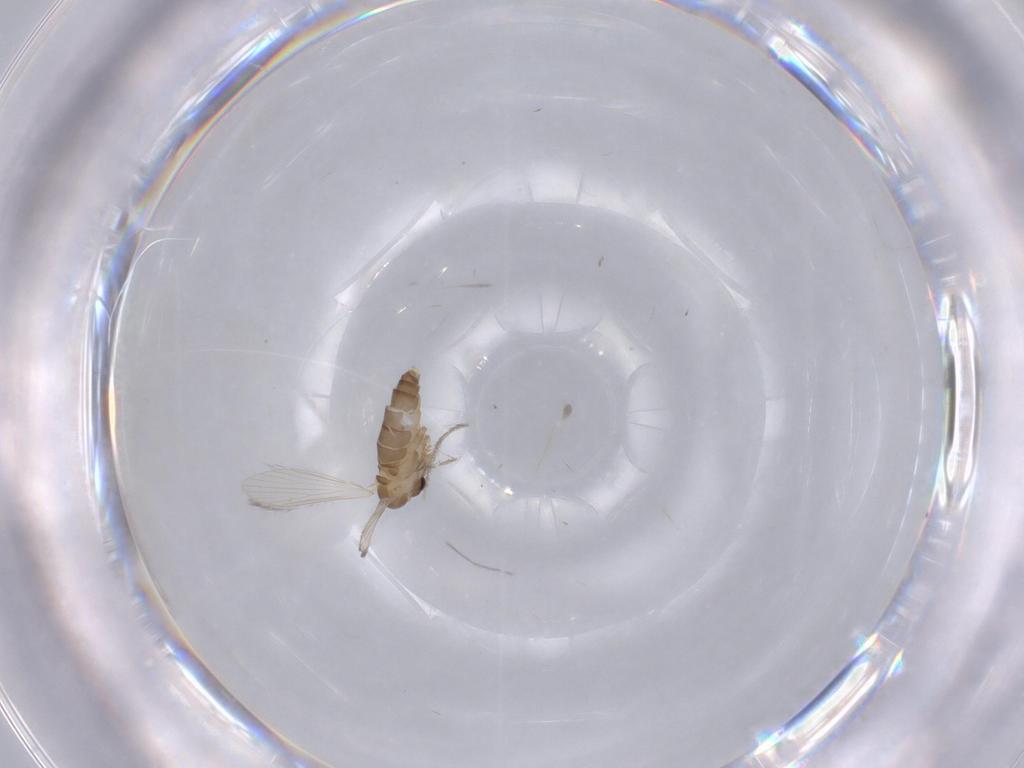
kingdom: Animalia
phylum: Arthropoda
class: Insecta
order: Diptera
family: Psychodidae
